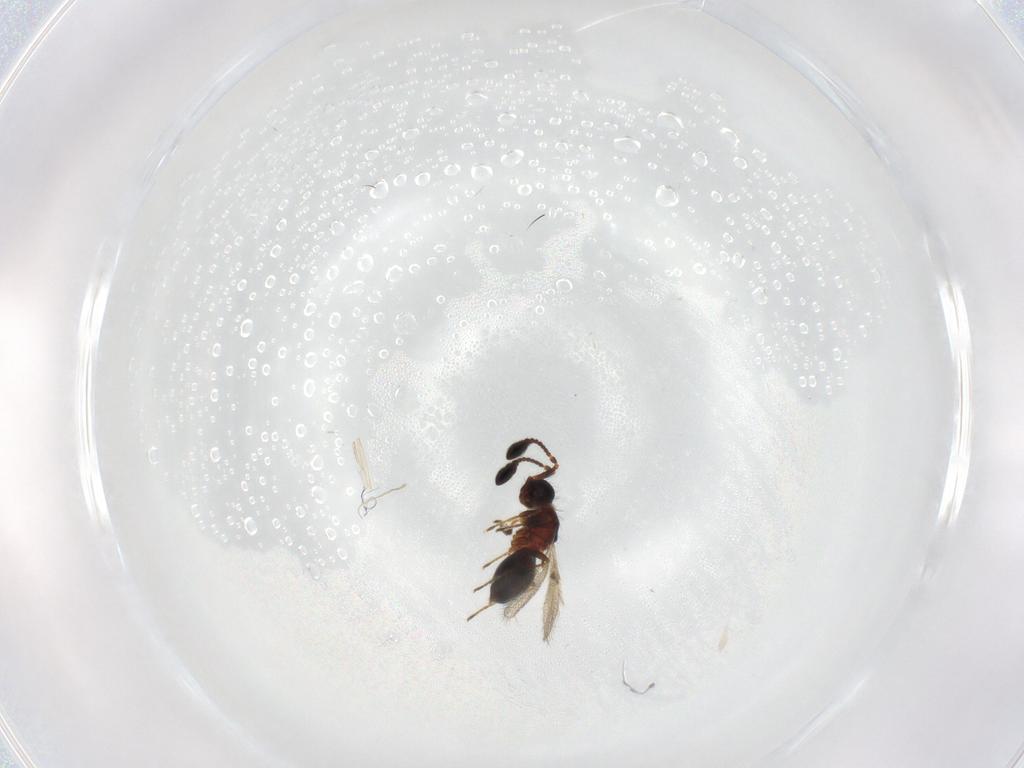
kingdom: Animalia
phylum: Arthropoda
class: Insecta
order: Hymenoptera
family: Diapriidae
